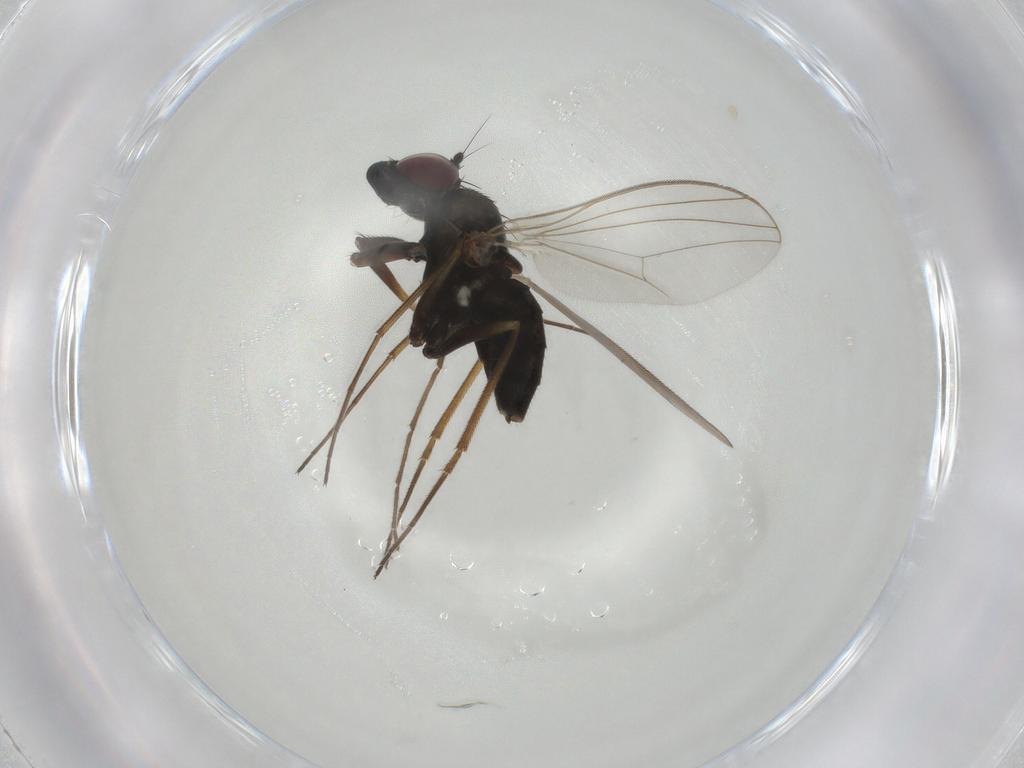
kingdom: Animalia
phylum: Arthropoda
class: Insecta
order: Diptera
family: Dolichopodidae
